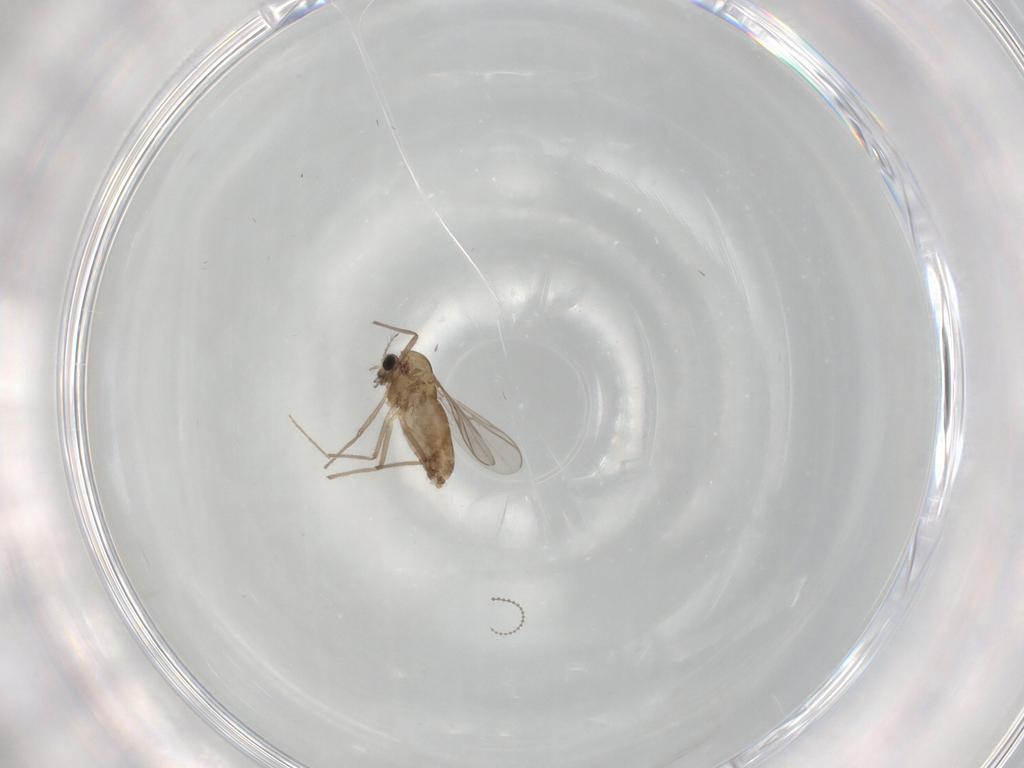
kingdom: Animalia
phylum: Arthropoda
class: Insecta
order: Diptera
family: Chironomidae
